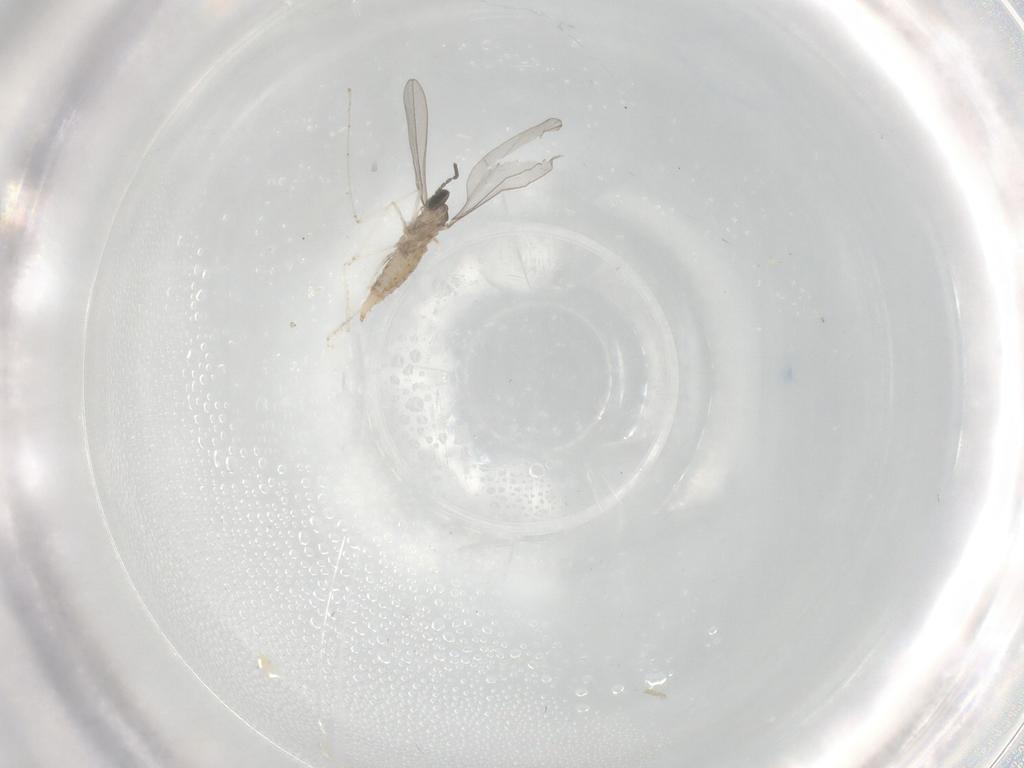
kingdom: Animalia
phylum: Arthropoda
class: Insecta
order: Diptera
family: Cecidomyiidae
